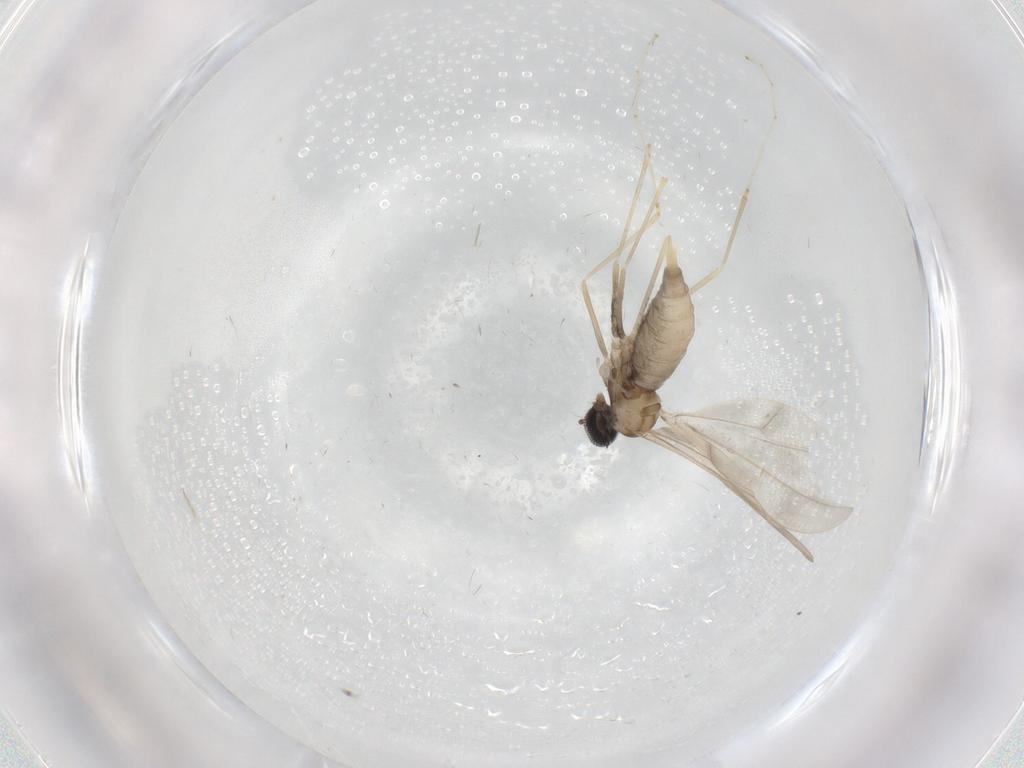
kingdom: Animalia
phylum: Arthropoda
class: Insecta
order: Diptera
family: Cecidomyiidae
